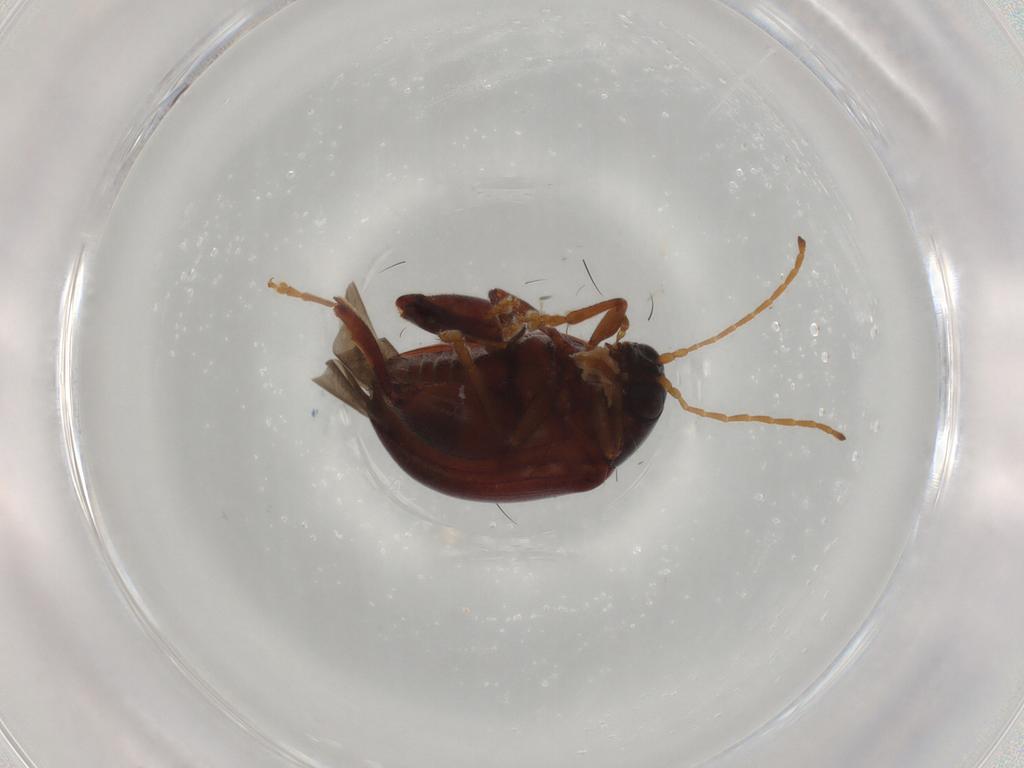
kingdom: Animalia
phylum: Arthropoda
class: Insecta
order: Coleoptera
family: Chrysomelidae
